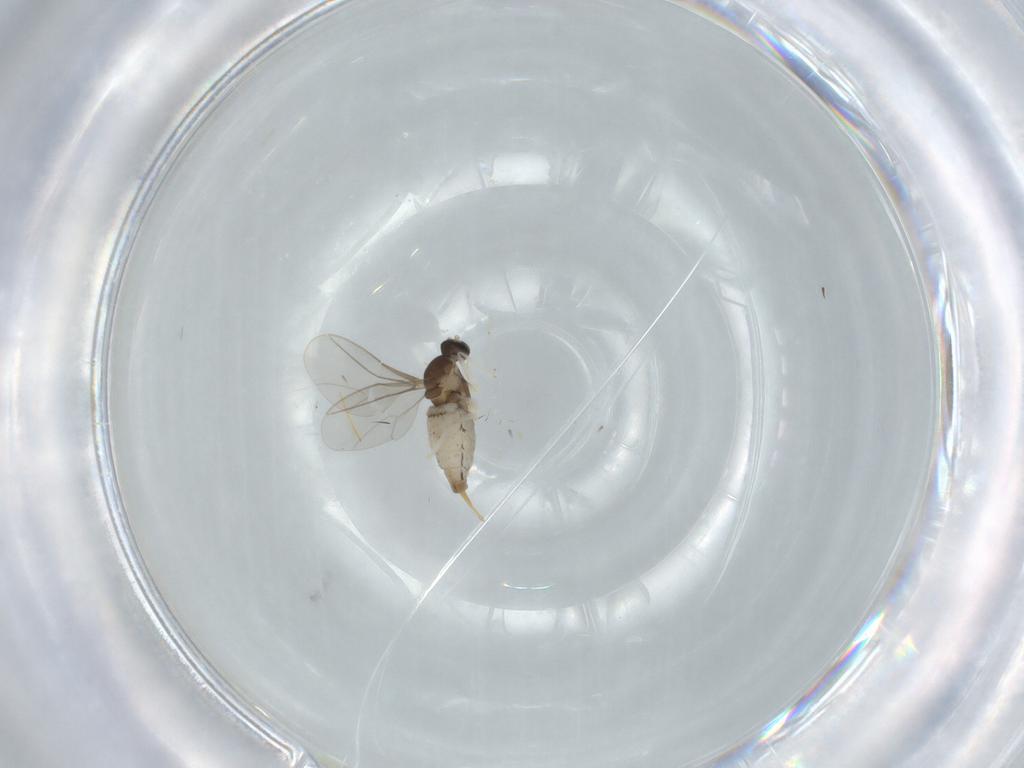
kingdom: Animalia
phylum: Arthropoda
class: Insecta
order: Diptera
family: Cecidomyiidae
